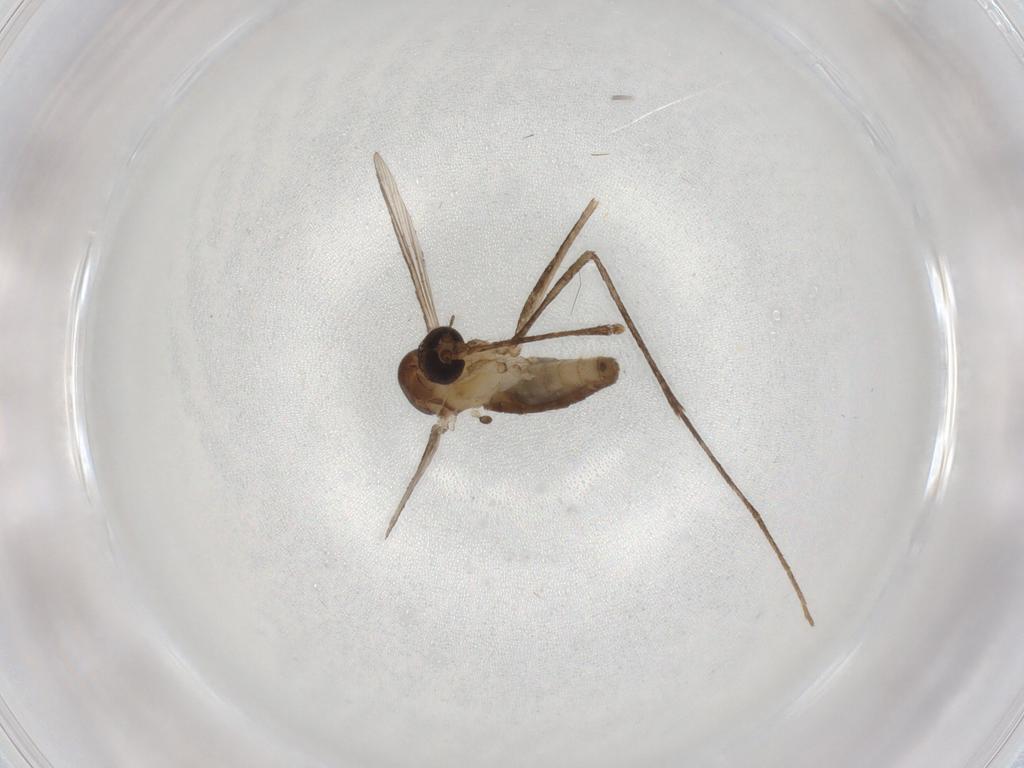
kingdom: Animalia
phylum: Arthropoda
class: Insecta
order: Diptera
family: Culicidae
